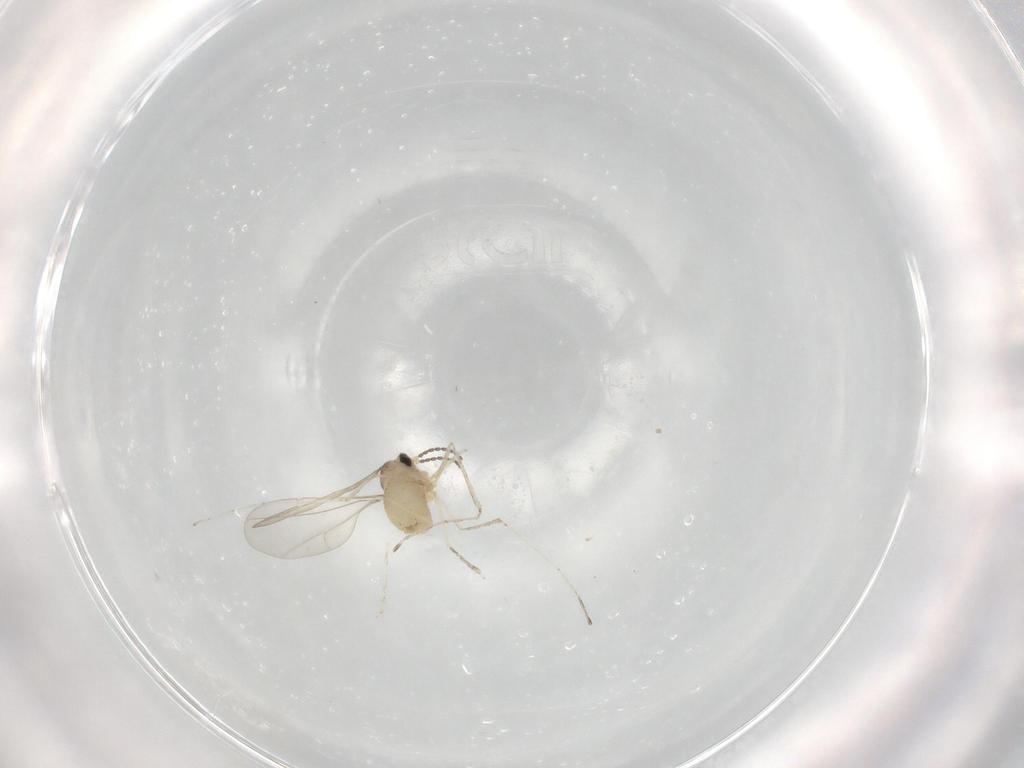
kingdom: Animalia
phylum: Arthropoda
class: Insecta
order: Diptera
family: Cecidomyiidae
